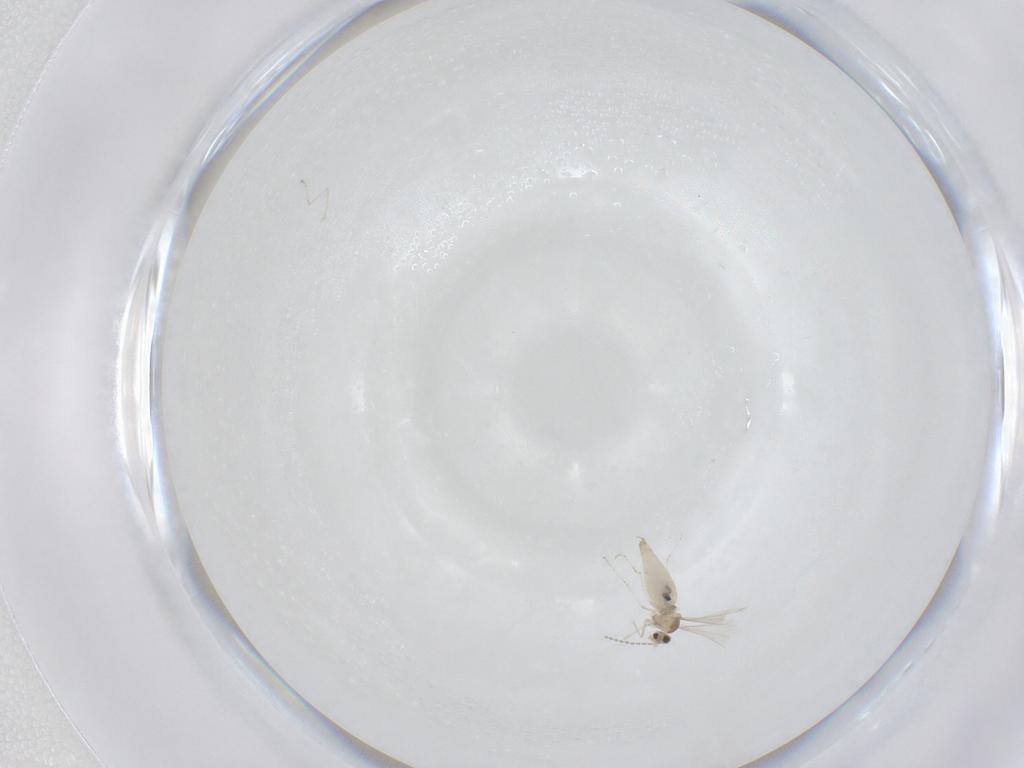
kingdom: Animalia
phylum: Arthropoda
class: Insecta
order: Diptera
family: Cecidomyiidae
